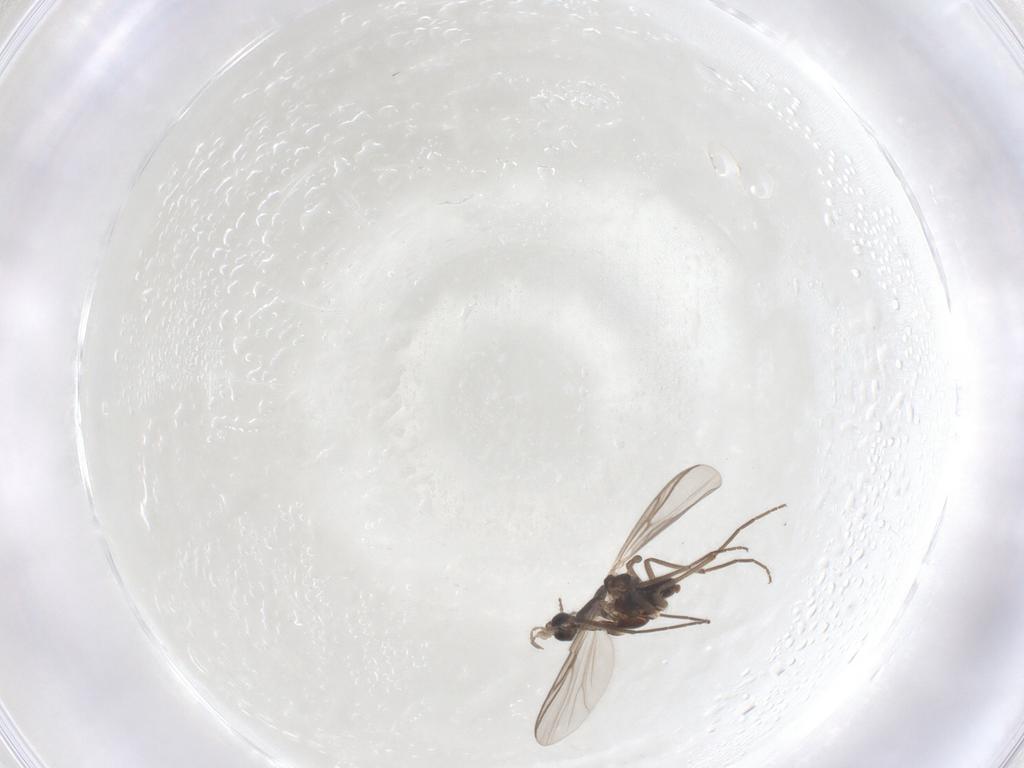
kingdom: Animalia
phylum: Arthropoda
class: Insecta
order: Diptera
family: Chironomidae
